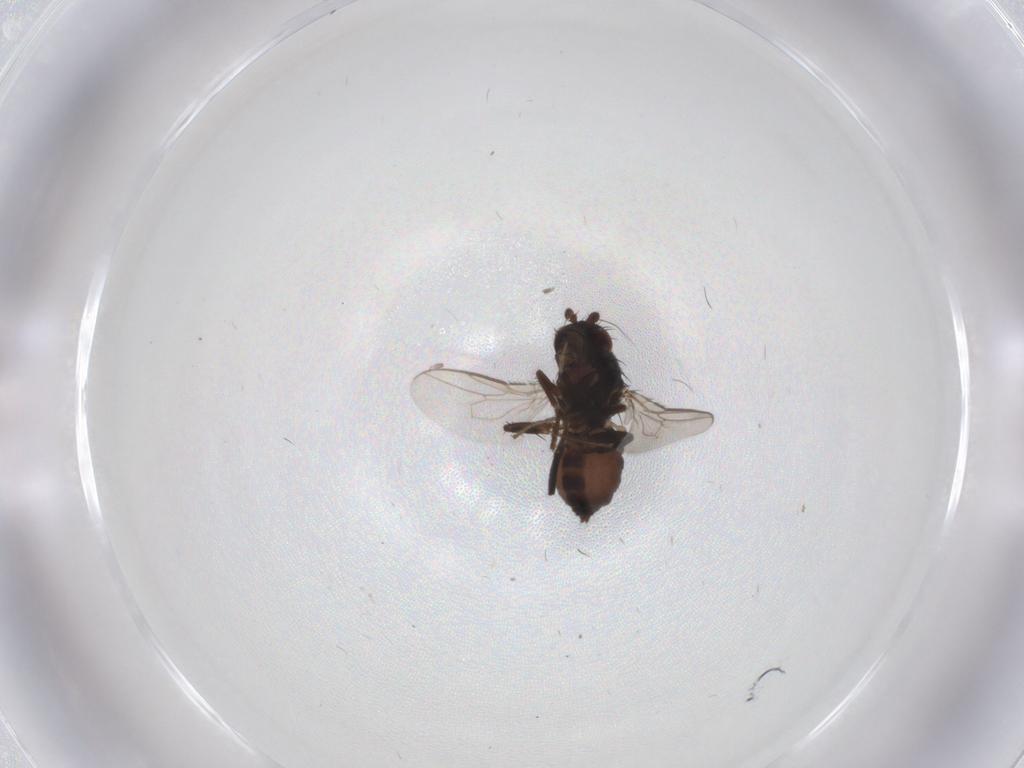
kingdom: Animalia
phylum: Arthropoda
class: Insecta
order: Diptera
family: Sphaeroceridae
